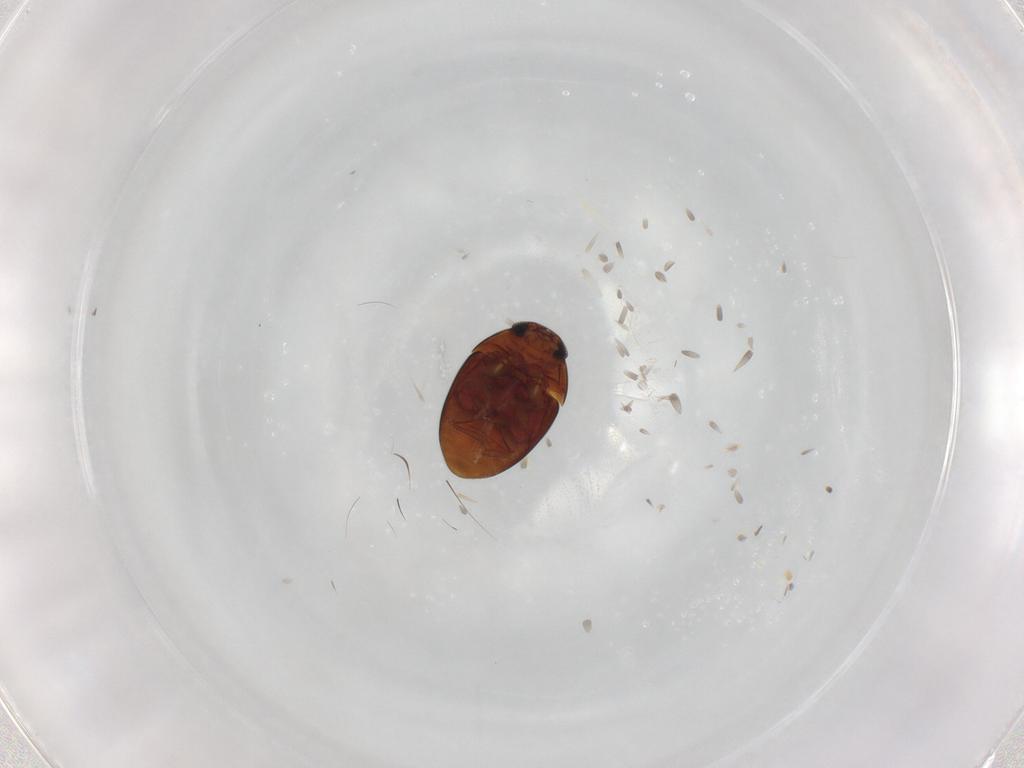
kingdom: Animalia
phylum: Arthropoda
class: Insecta
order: Coleoptera
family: Phalacridae
